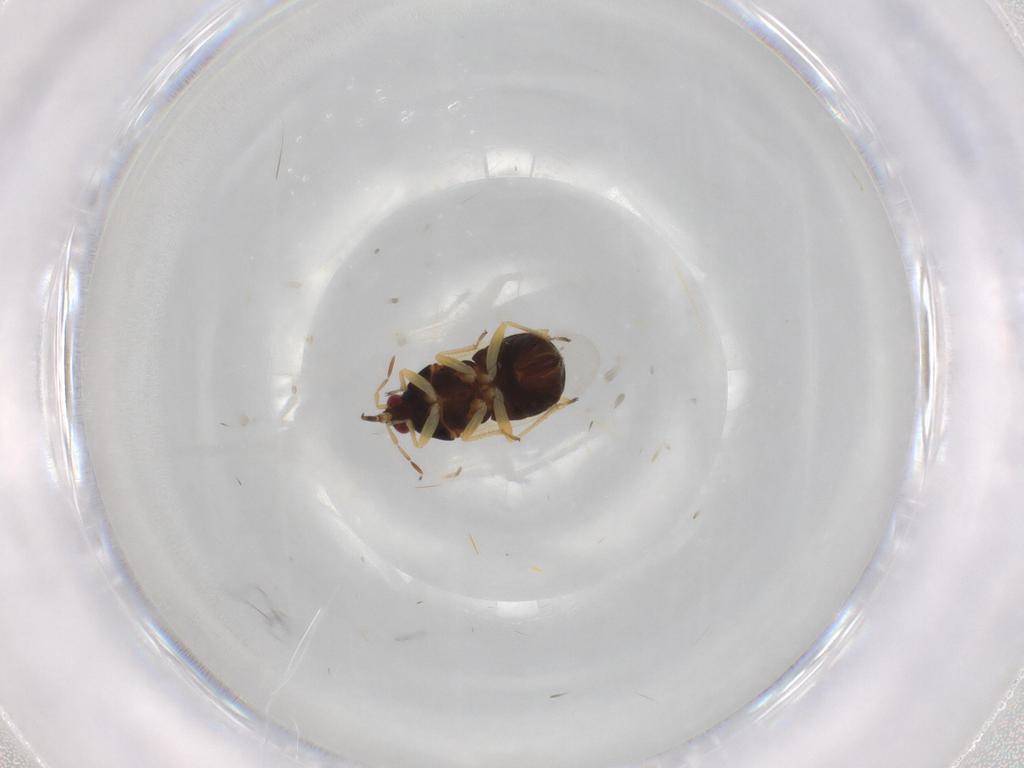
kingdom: Animalia
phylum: Arthropoda
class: Insecta
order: Hemiptera
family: Anthocoridae
